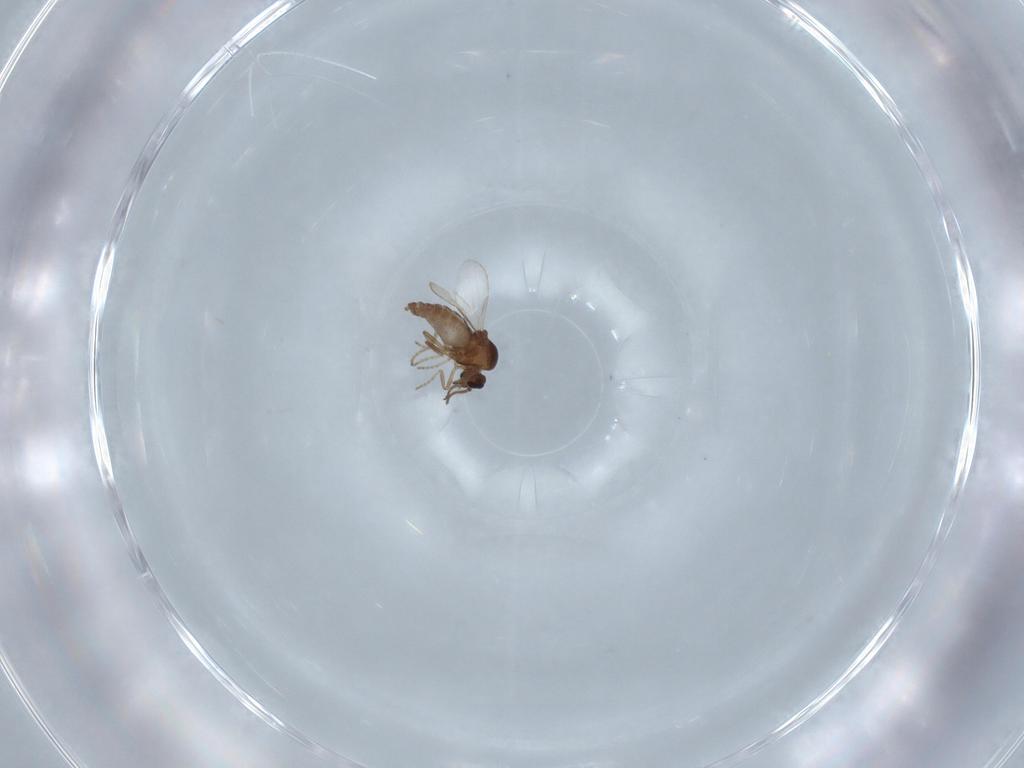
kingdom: Animalia
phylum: Arthropoda
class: Insecta
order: Diptera
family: Ceratopogonidae
